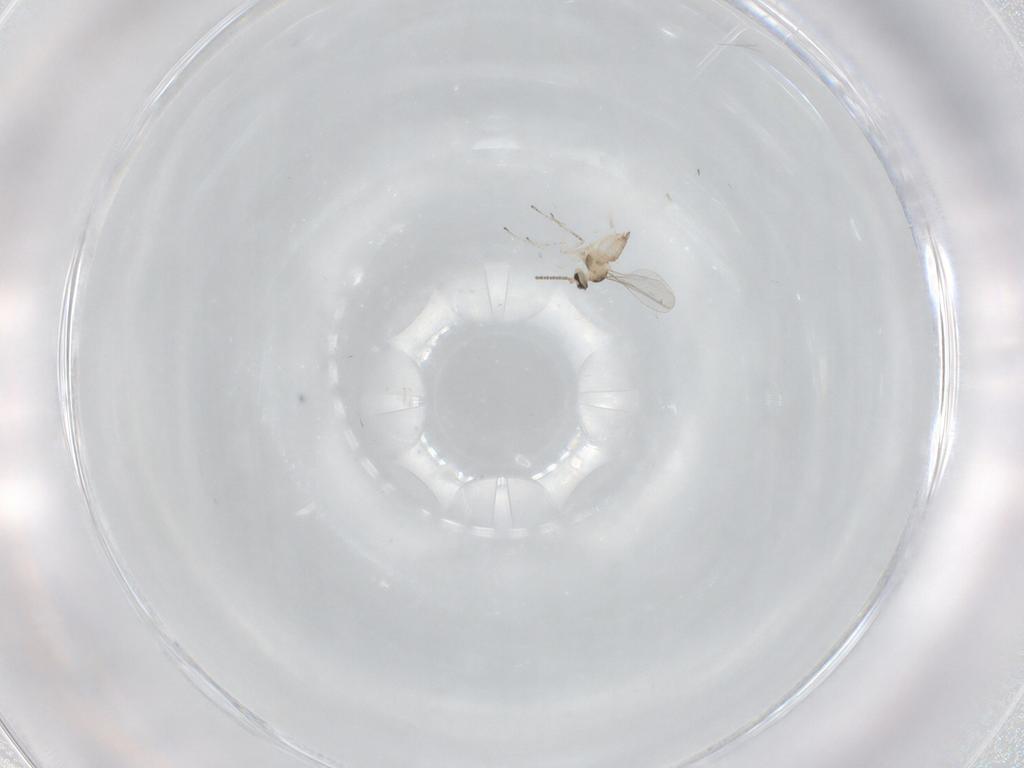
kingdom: Animalia
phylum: Arthropoda
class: Insecta
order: Diptera
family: Cecidomyiidae
